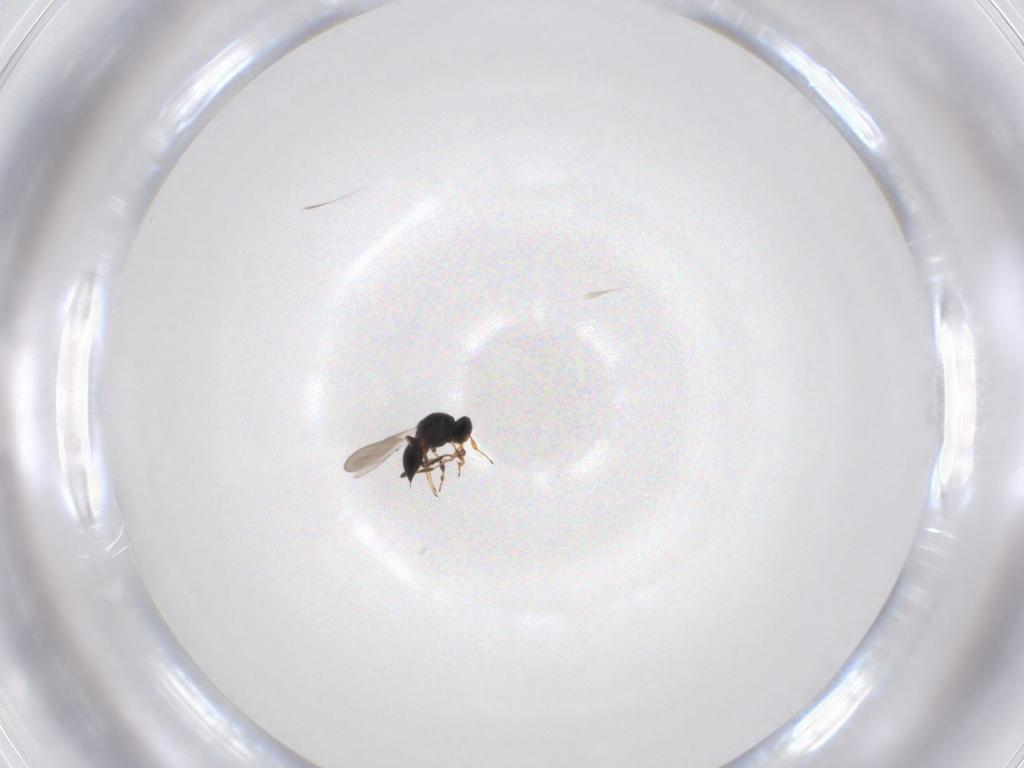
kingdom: Animalia
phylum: Arthropoda
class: Insecta
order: Hymenoptera
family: Platygastridae
